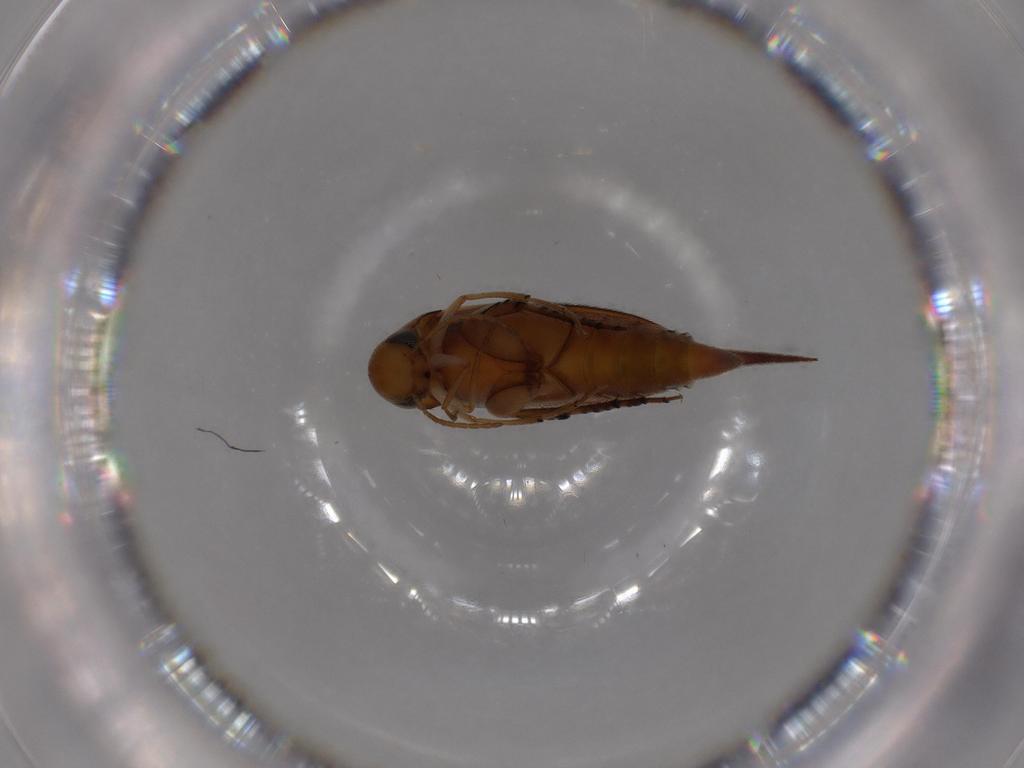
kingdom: Animalia
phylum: Arthropoda
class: Insecta
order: Coleoptera
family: Mordellidae
